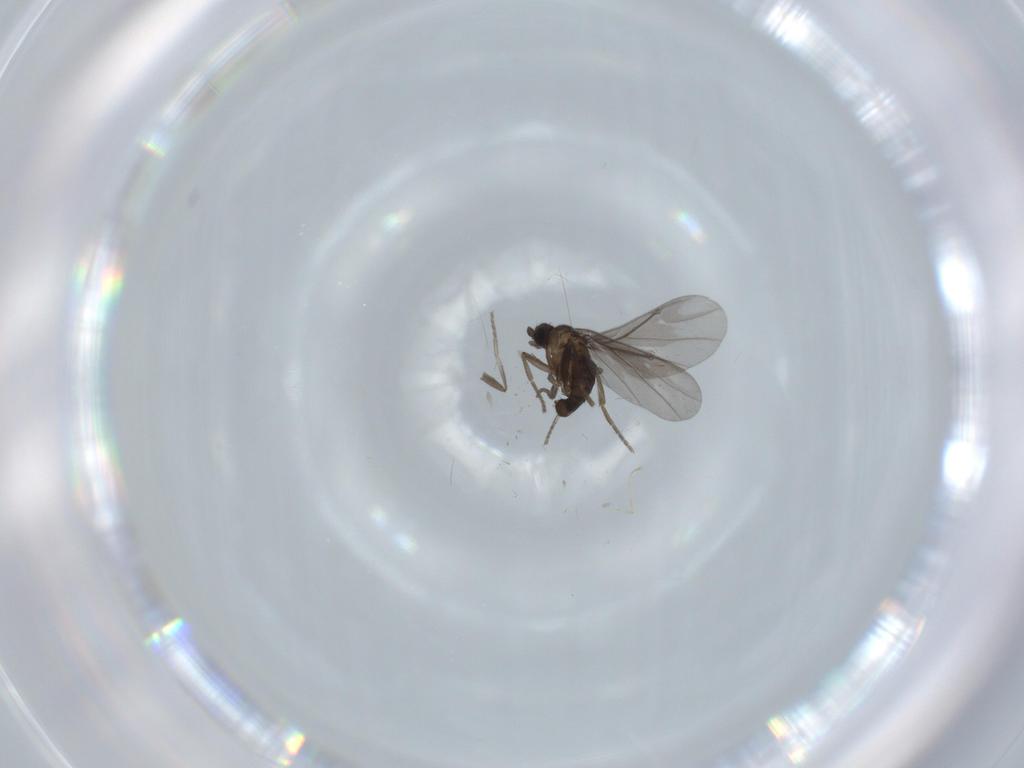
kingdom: Animalia
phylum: Arthropoda
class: Insecta
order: Diptera
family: Phoridae
